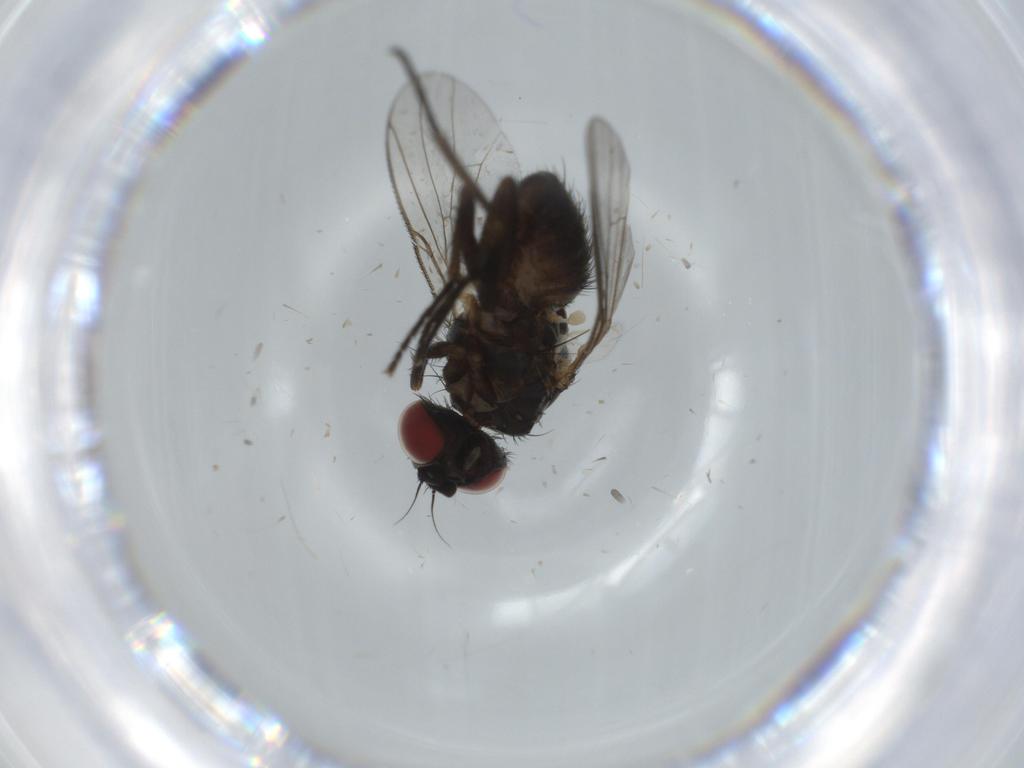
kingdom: Animalia
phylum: Arthropoda
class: Insecta
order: Diptera
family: Muscidae
